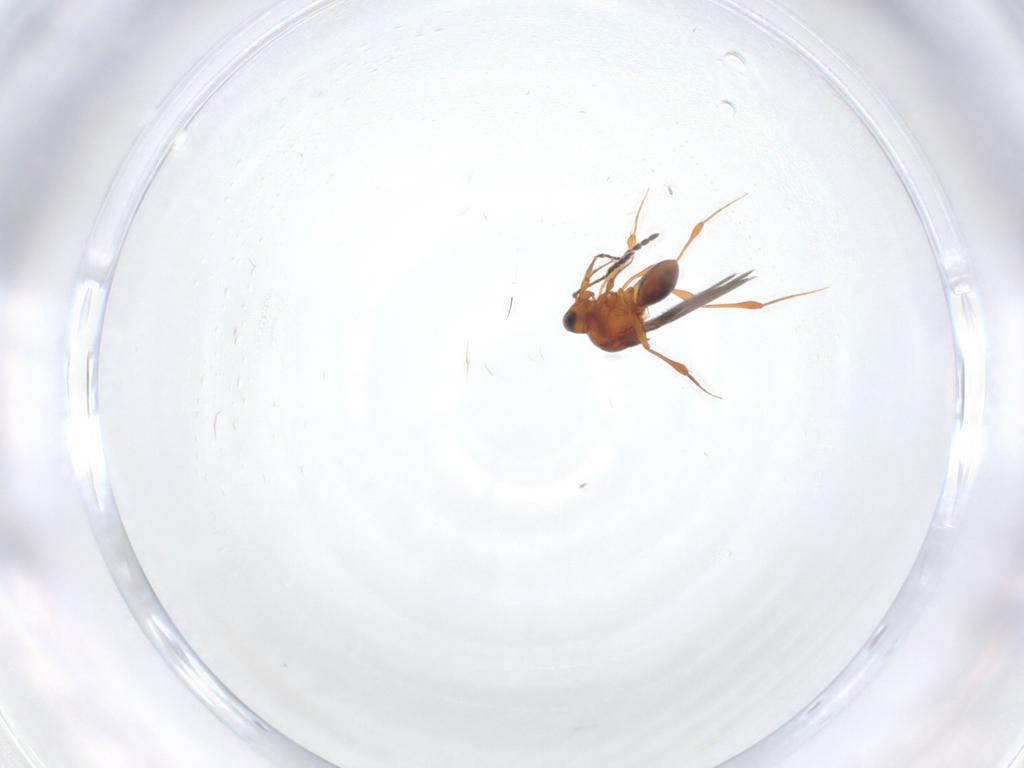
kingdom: Animalia
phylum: Arthropoda
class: Insecta
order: Hymenoptera
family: Platygastridae
